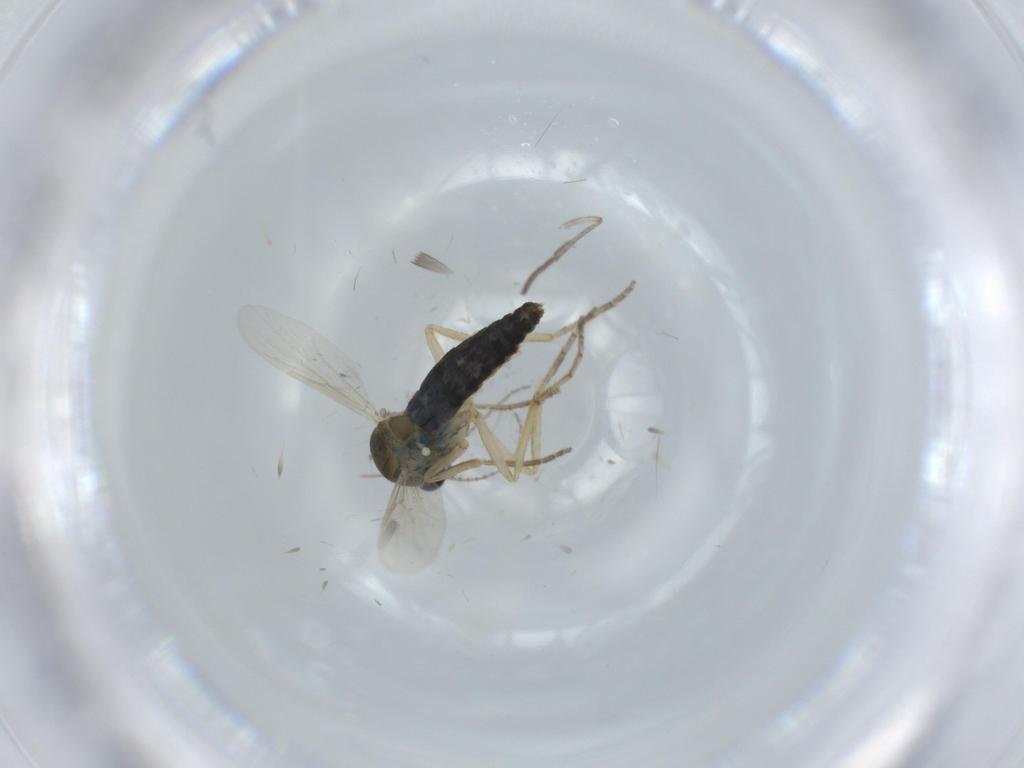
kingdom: Animalia
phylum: Arthropoda
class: Insecta
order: Diptera
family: Ceratopogonidae
